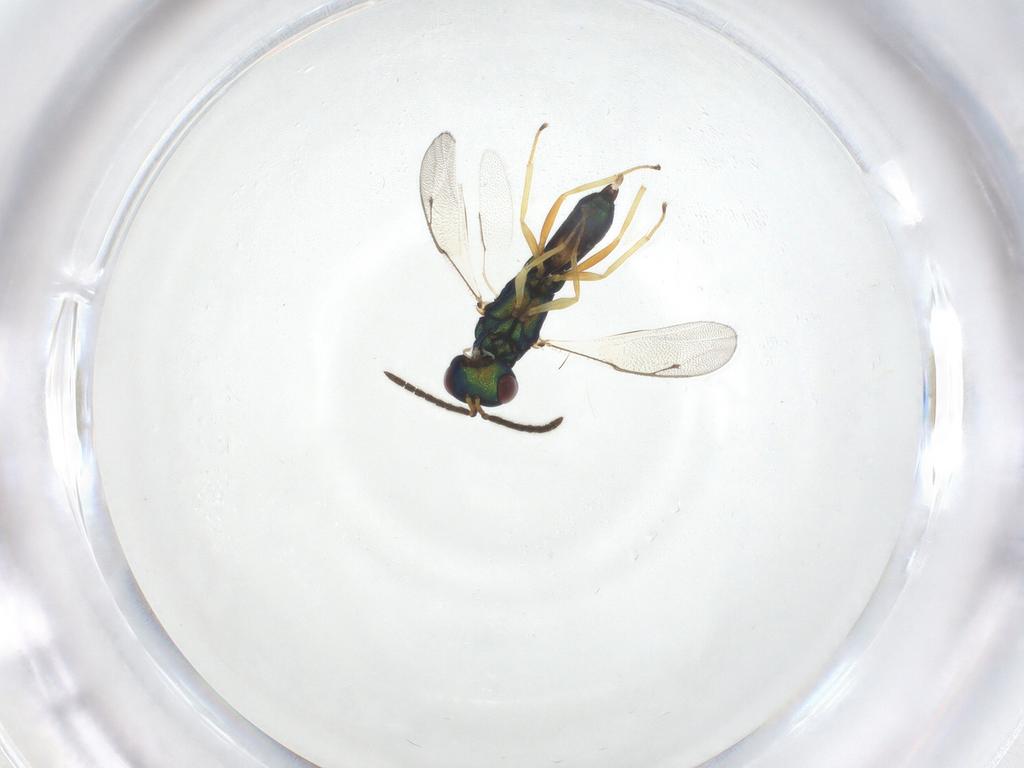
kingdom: Animalia
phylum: Arthropoda
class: Insecta
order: Hymenoptera
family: Pteromalidae
